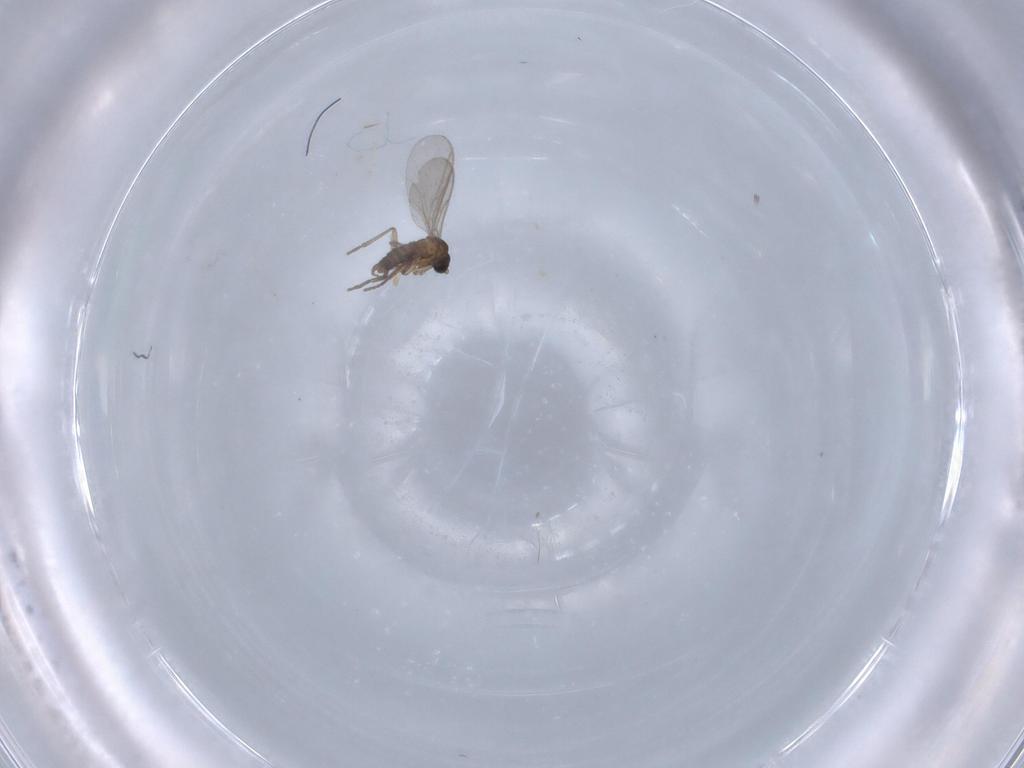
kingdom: Animalia
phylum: Arthropoda
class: Insecta
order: Diptera
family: Sciaridae
